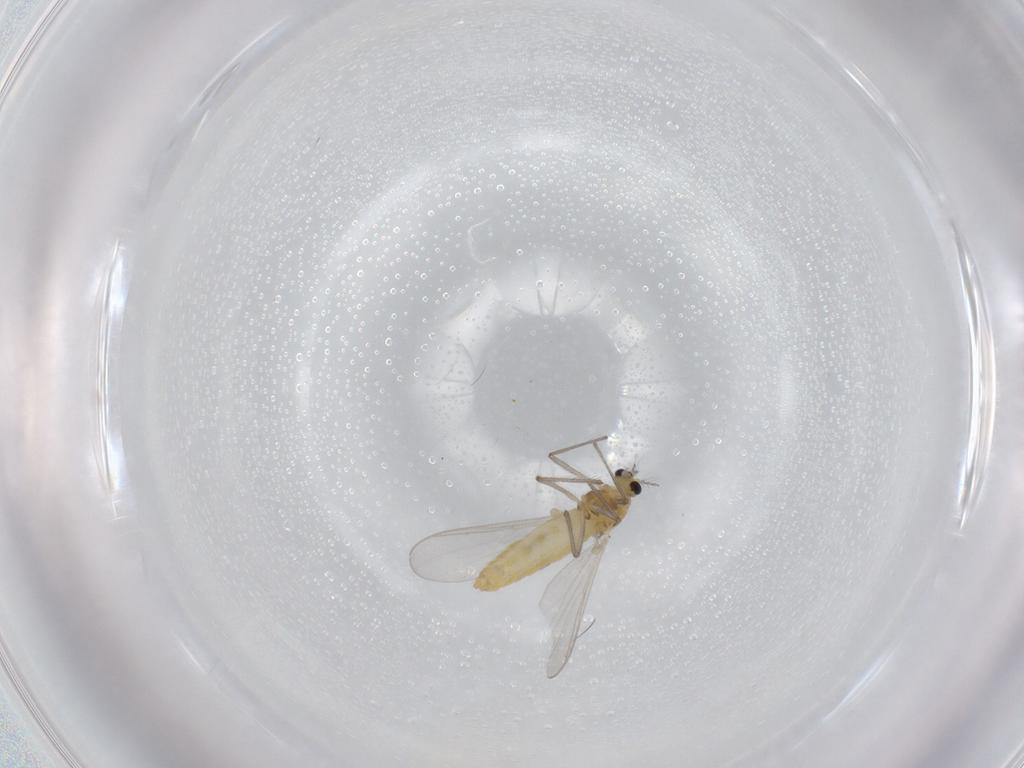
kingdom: Animalia
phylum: Arthropoda
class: Insecta
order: Diptera
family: Chironomidae
